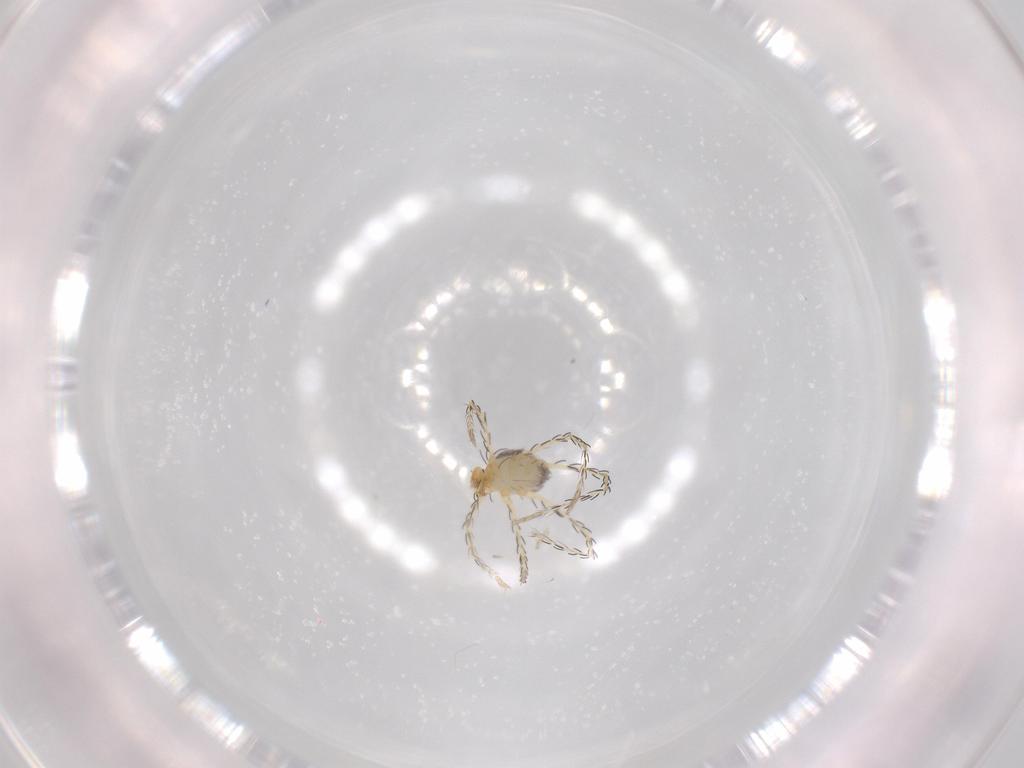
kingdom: Animalia
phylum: Arthropoda
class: Arachnida
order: Trombidiformes
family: Erythraeidae
